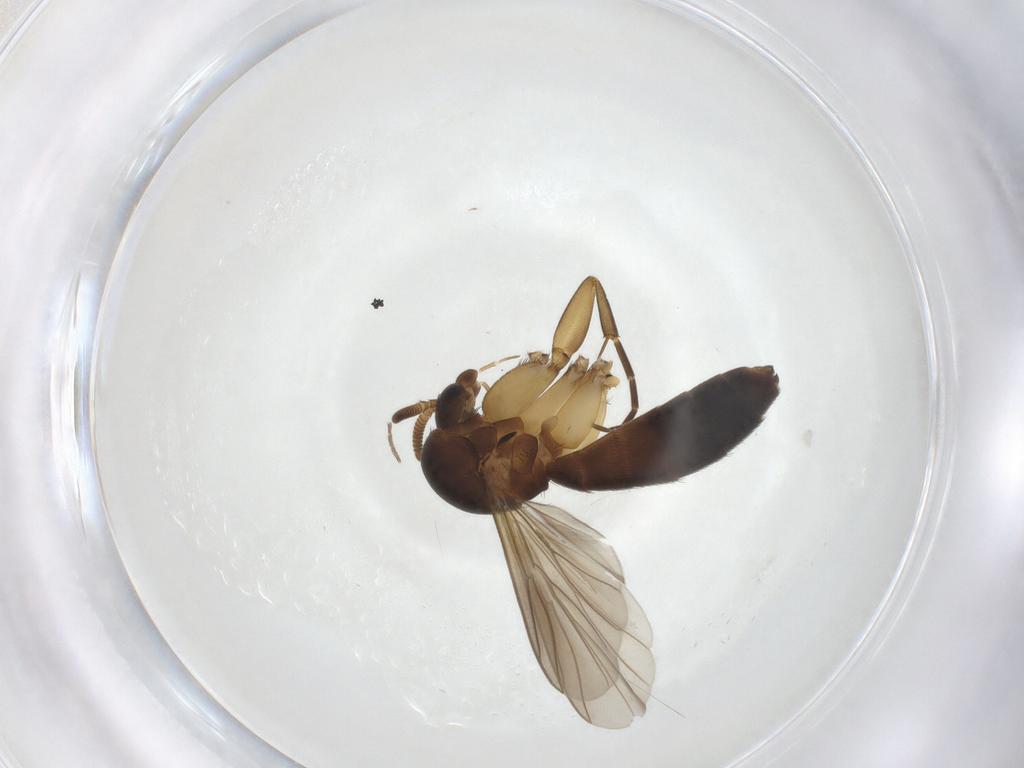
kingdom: Animalia
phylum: Arthropoda
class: Insecta
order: Diptera
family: Mycetophilidae
